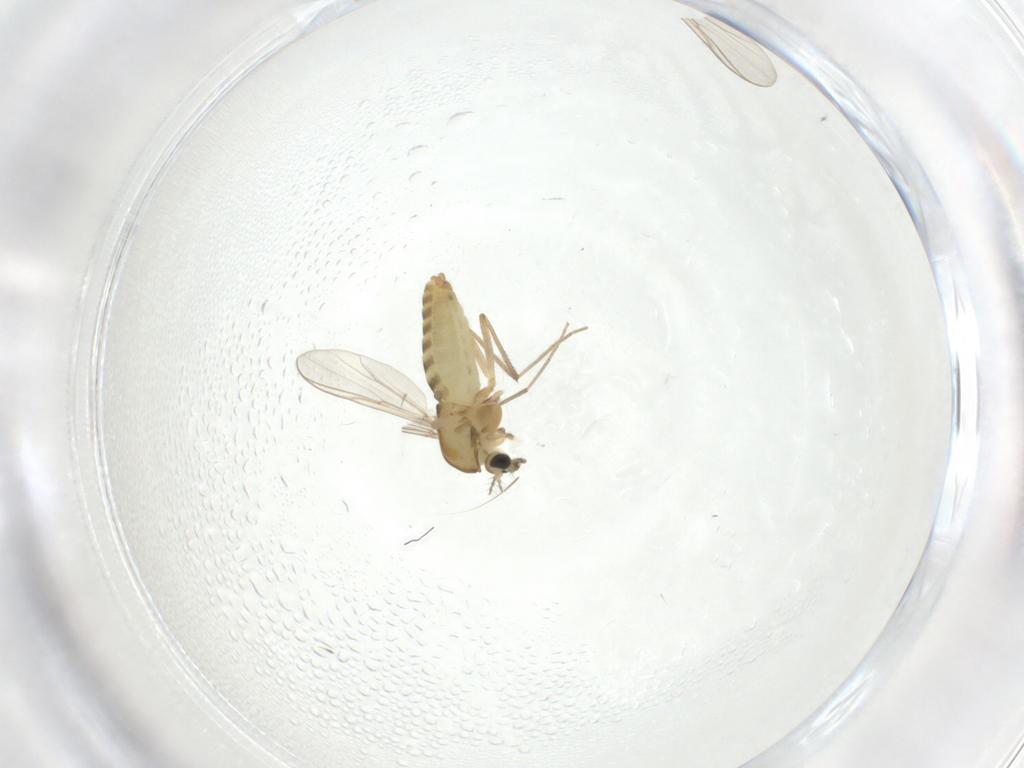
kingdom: Animalia
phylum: Arthropoda
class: Insecta
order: Diptera
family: Chironomidae
